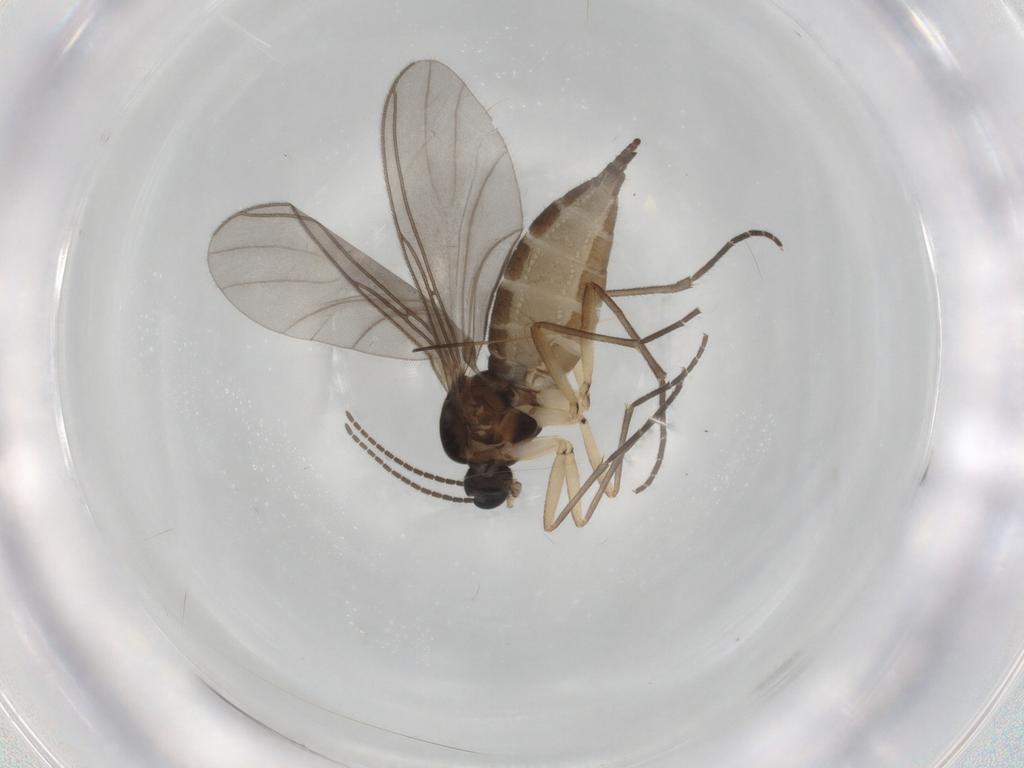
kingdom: Animalia
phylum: Arthropoda
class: Insecta
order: Diptera
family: Sciaridae
